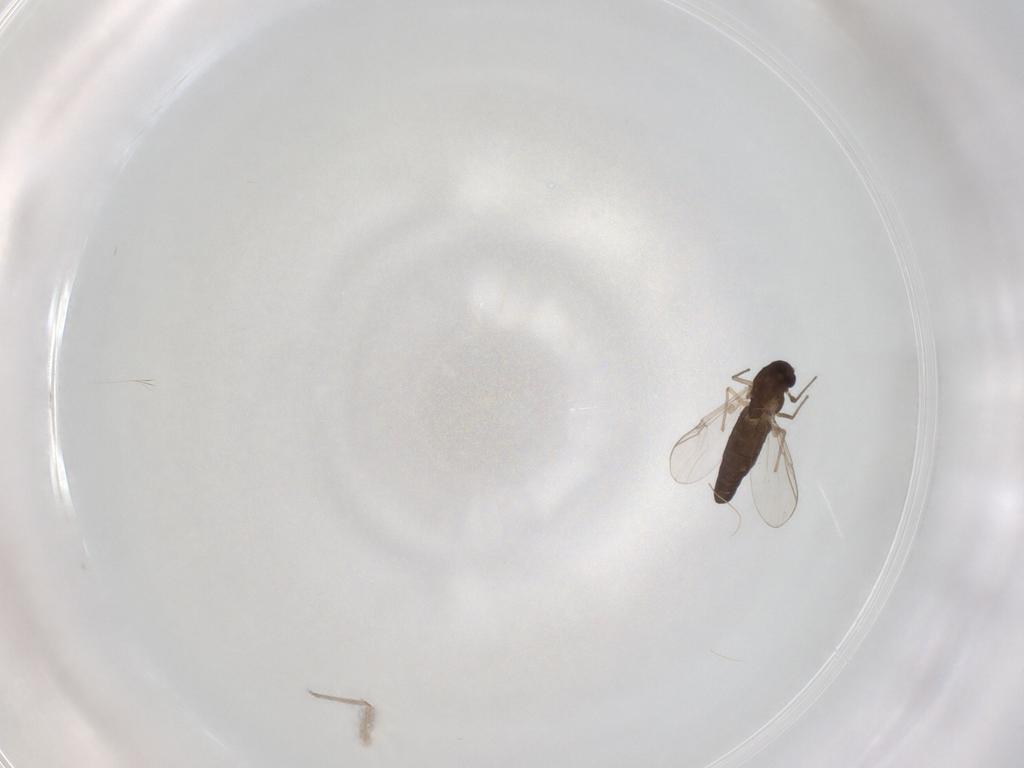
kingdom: Animalia
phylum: Arthropoda
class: Insecta
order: Diptera
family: Chironomidae
